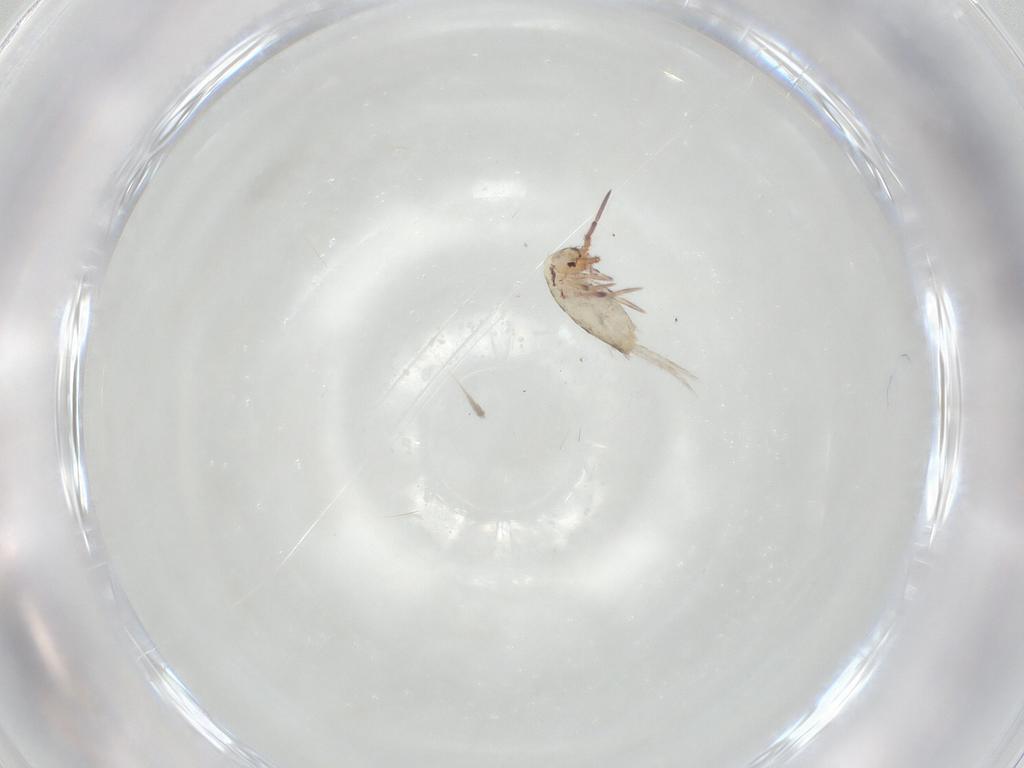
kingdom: Animalia
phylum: Arthropoda
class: Collembola
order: Entomobryomorpha
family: Entomobryidae
